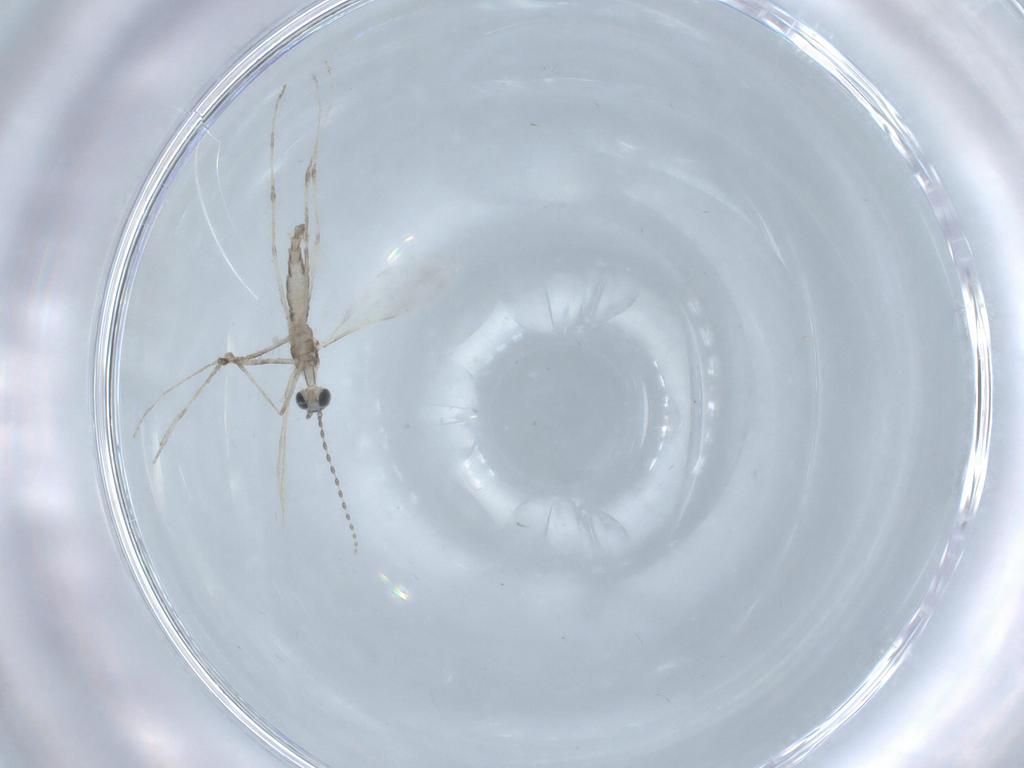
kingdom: Animalia
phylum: Arthropoda
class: Insecta
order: Diptera
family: Cecidomyiidae
